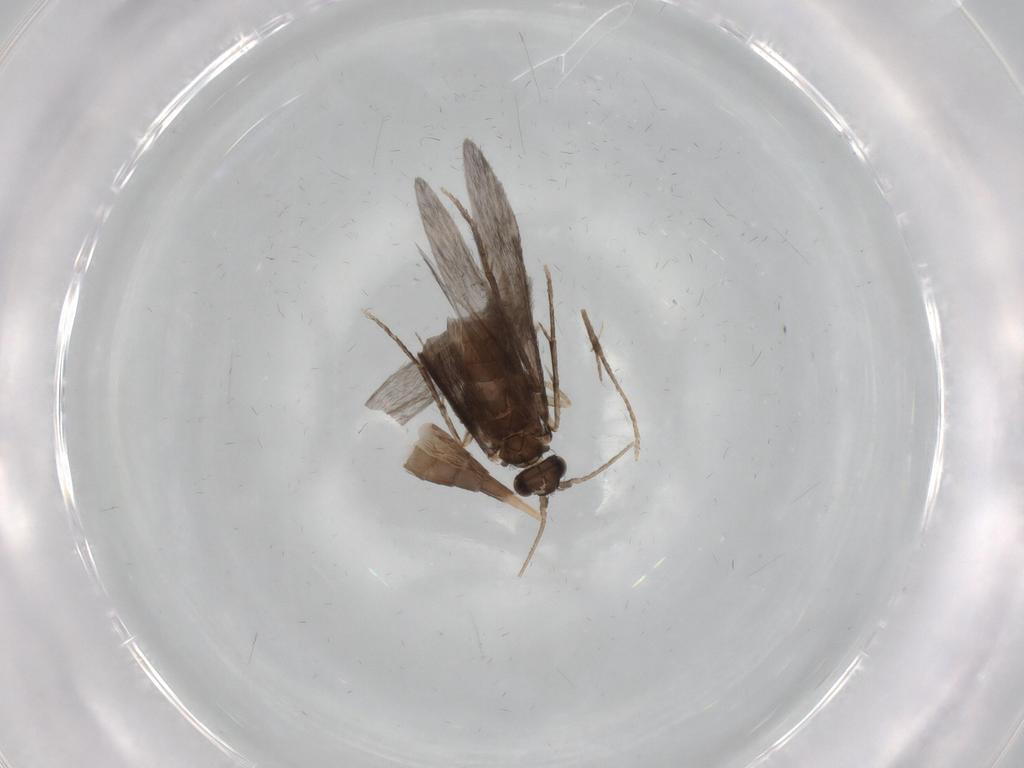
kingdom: Animalia
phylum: Arthropoda
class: Insecta
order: Trichoptera
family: Xiphocentronidae
